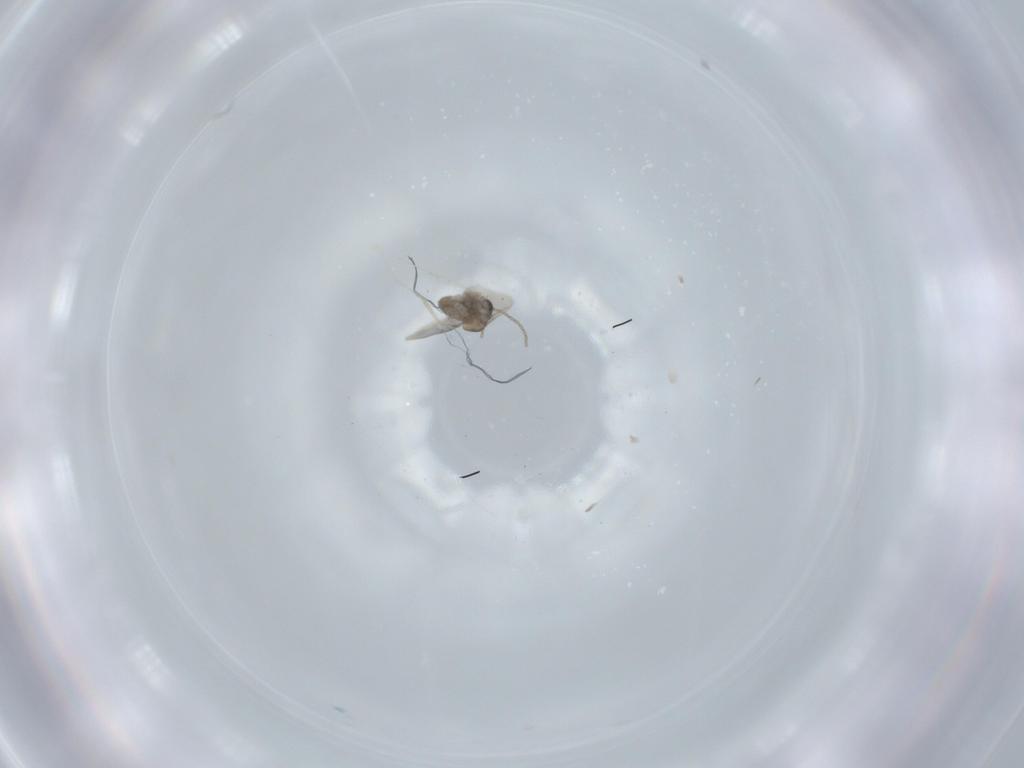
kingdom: Animalia
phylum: Arthropoda
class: Insecta
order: Diptera
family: Cecidomyiidae
